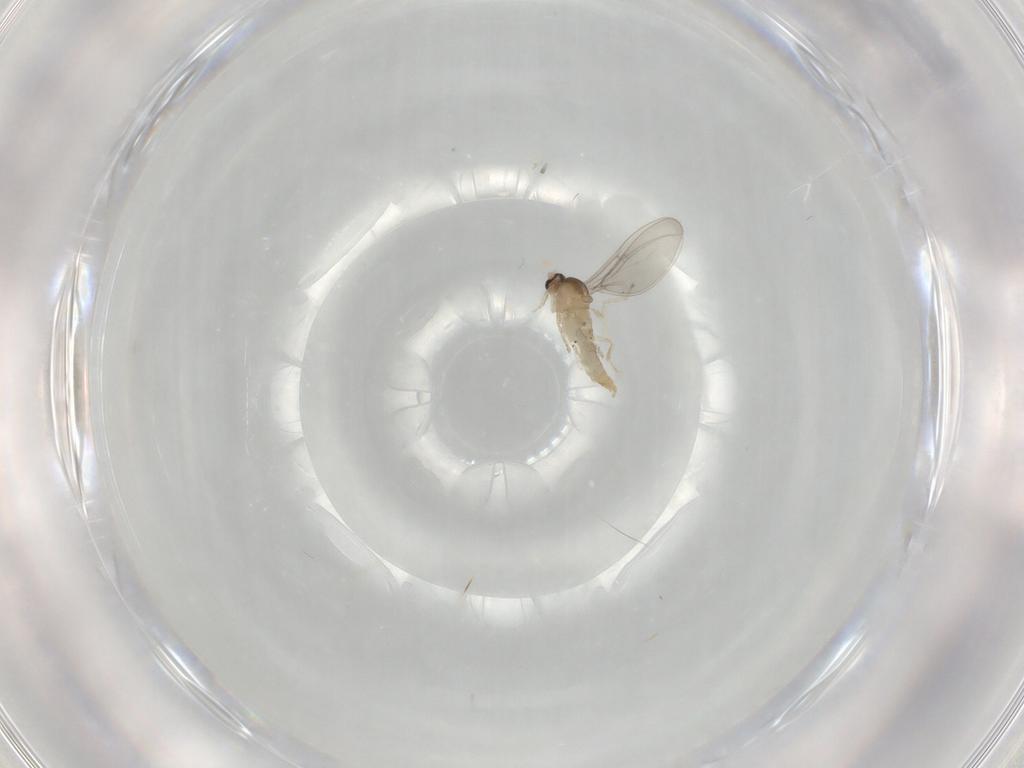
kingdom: Animalia
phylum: Arthropoda
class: Insecta
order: Diptera
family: Cecidomyiidae
